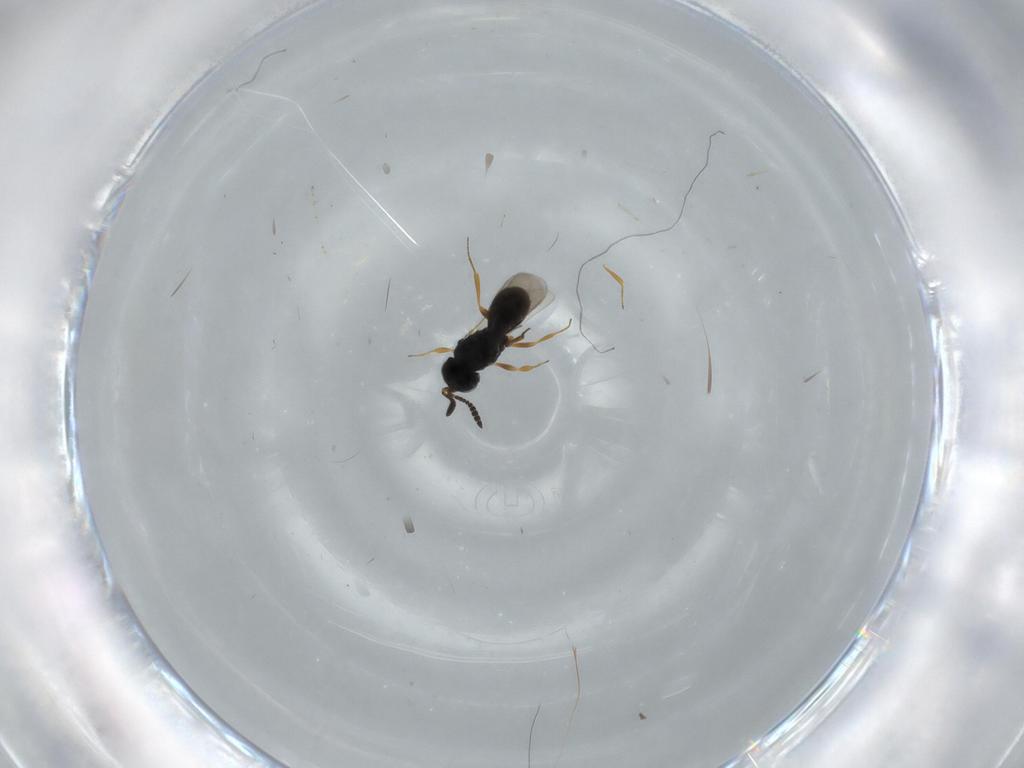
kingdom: Animalia
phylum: Arthropoda
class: Insecta
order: Hymenoptera
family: Scelionidae
